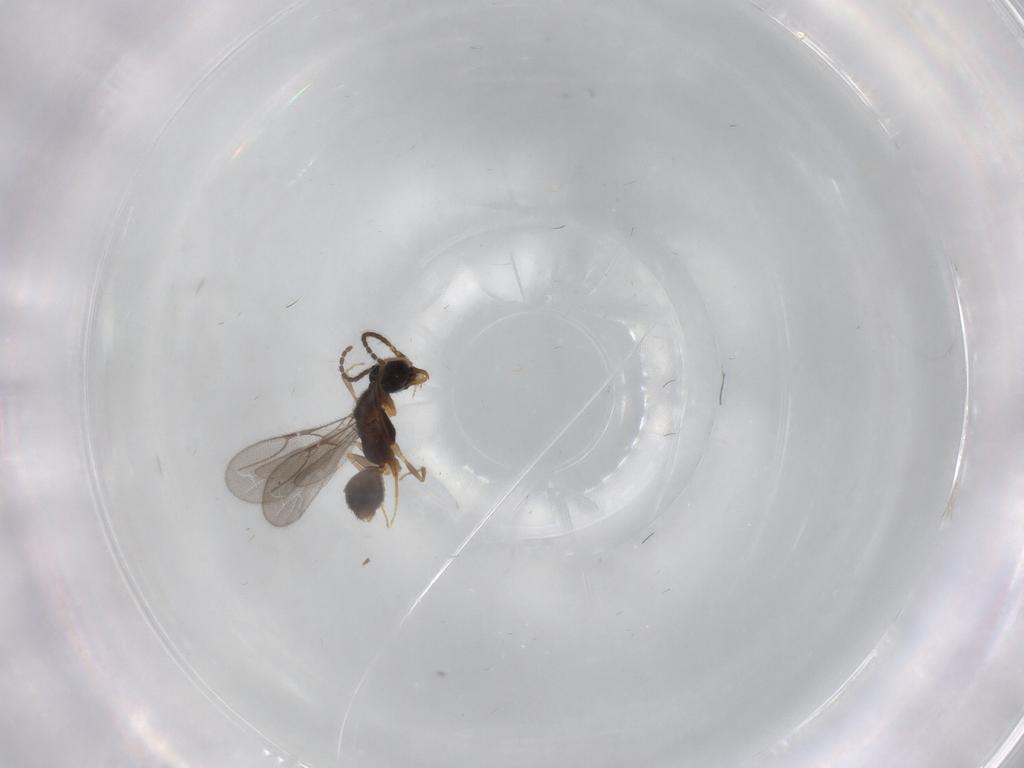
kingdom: Animalia
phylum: Arthropoda
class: Insecta
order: Hymenoptera
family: Bethylidae
